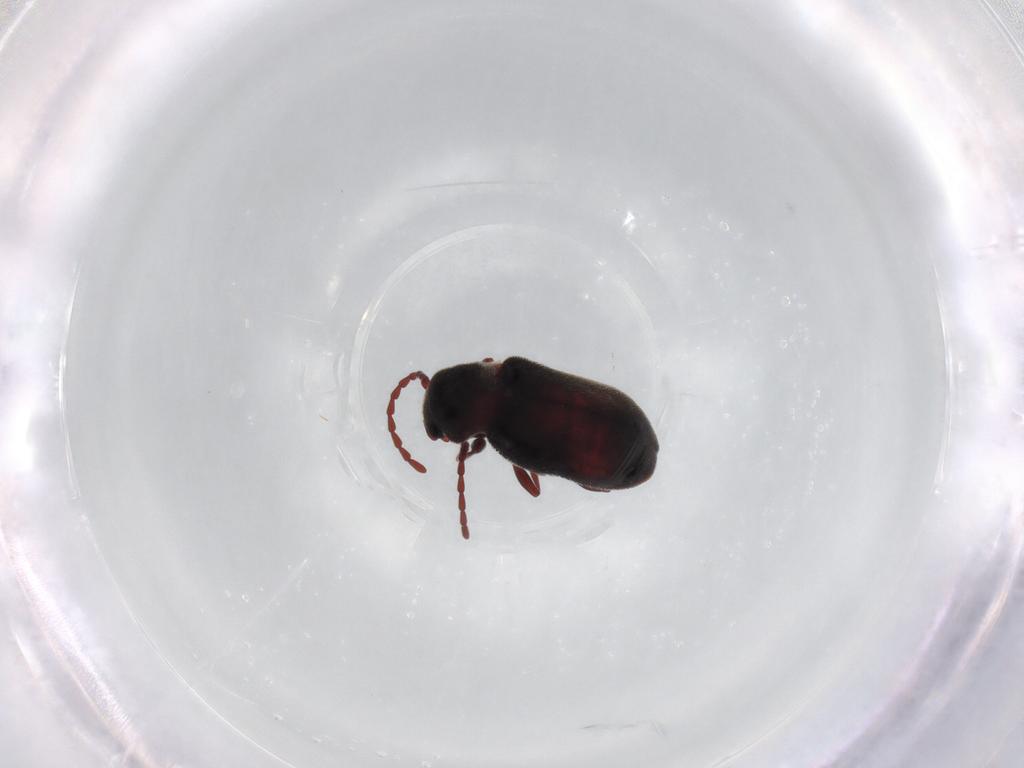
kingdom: Animalia
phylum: Arthropoda
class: Insecta
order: Coleoptera
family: Ptinidae
